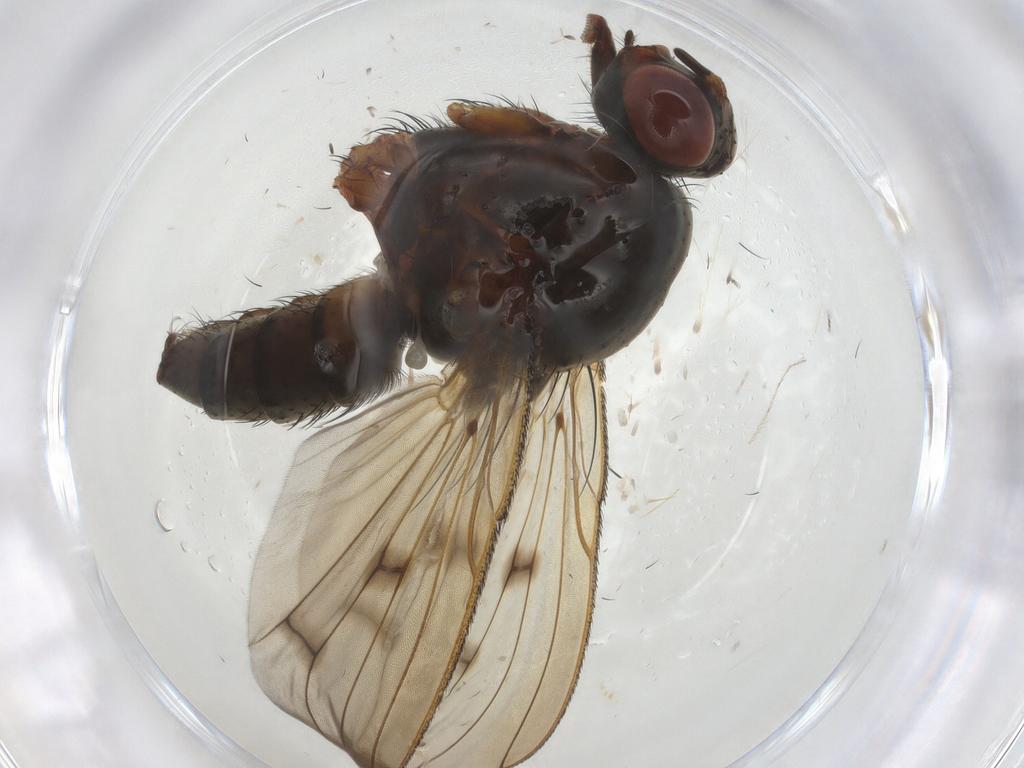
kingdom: Animalia
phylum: Arthropoda
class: Insecta
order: Diptera
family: Anthomyiidae
